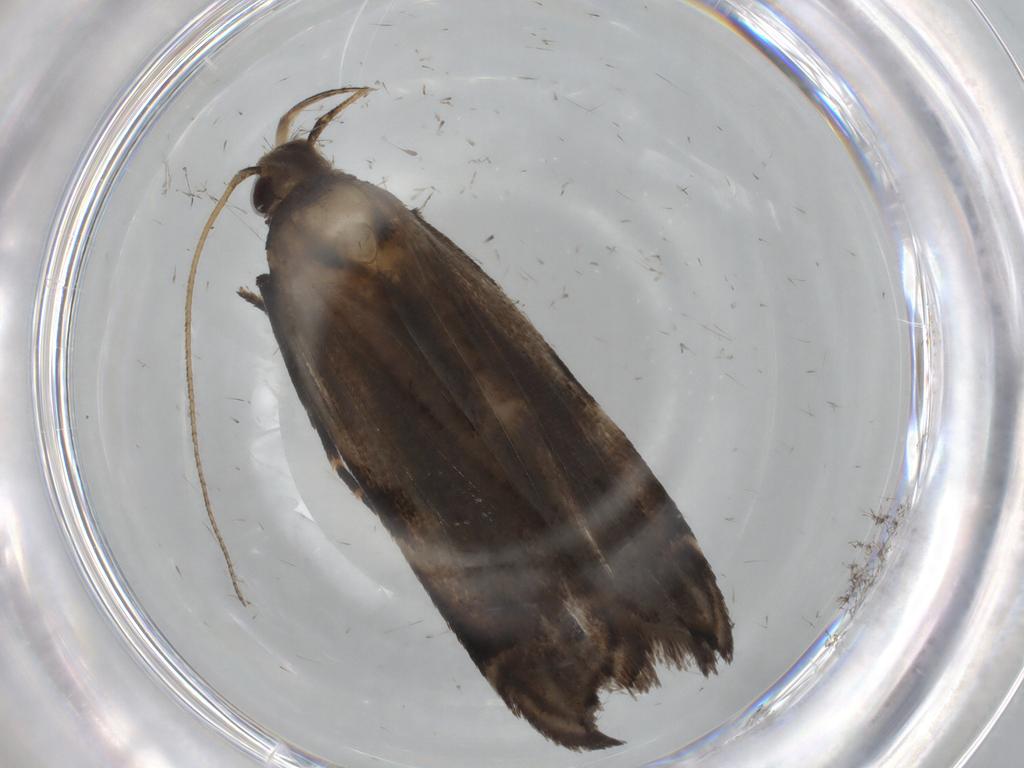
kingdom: Animalia
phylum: Arthropoda
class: Insecta
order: Lepidoptera
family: Gelechiidae
